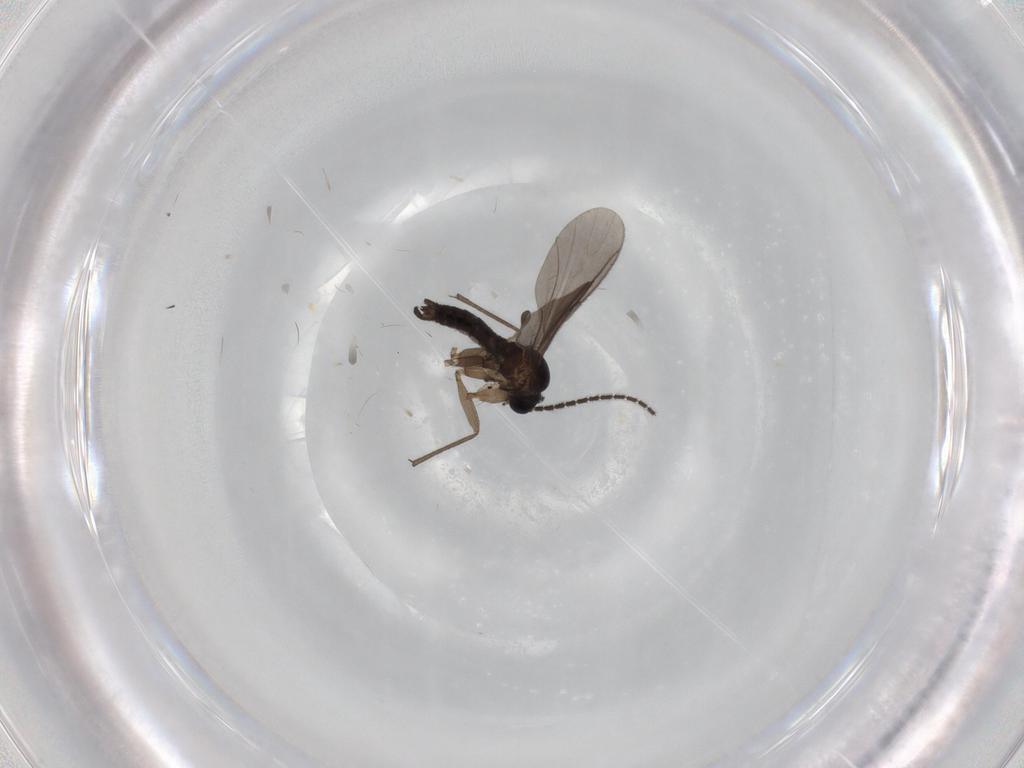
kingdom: Animalia
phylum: Arthropoda
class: Insecta
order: Diptera
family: Sciaridae
